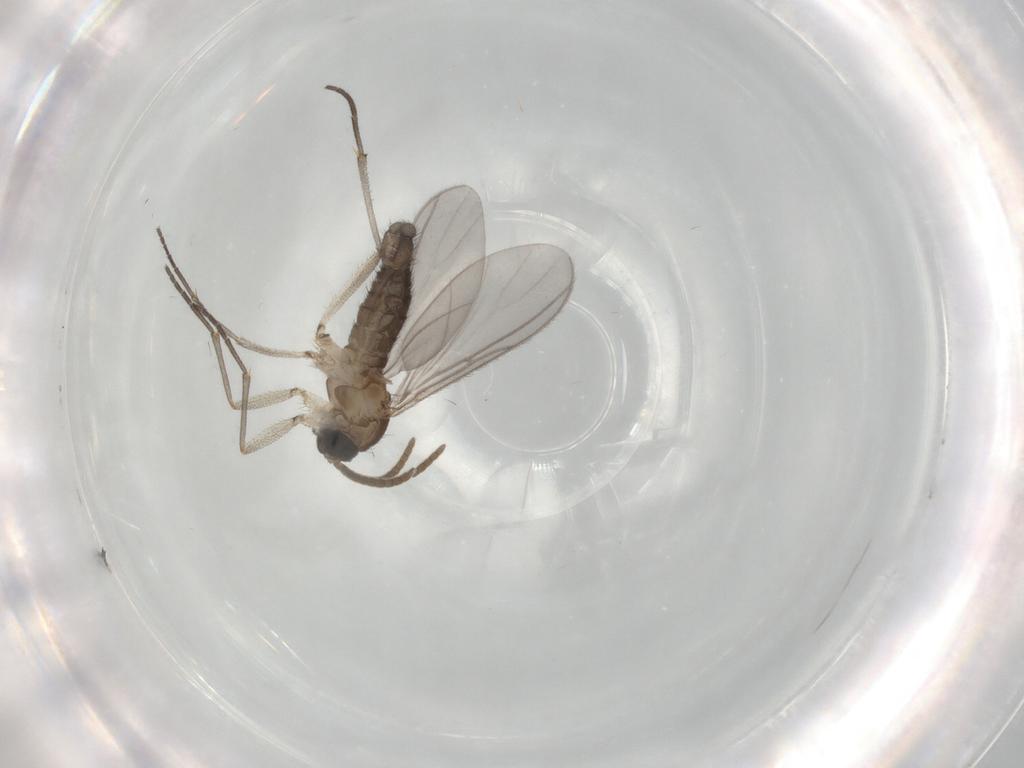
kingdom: Animalia
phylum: Arthropoda
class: Insecta
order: Diptera
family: Cecidomyiidae
